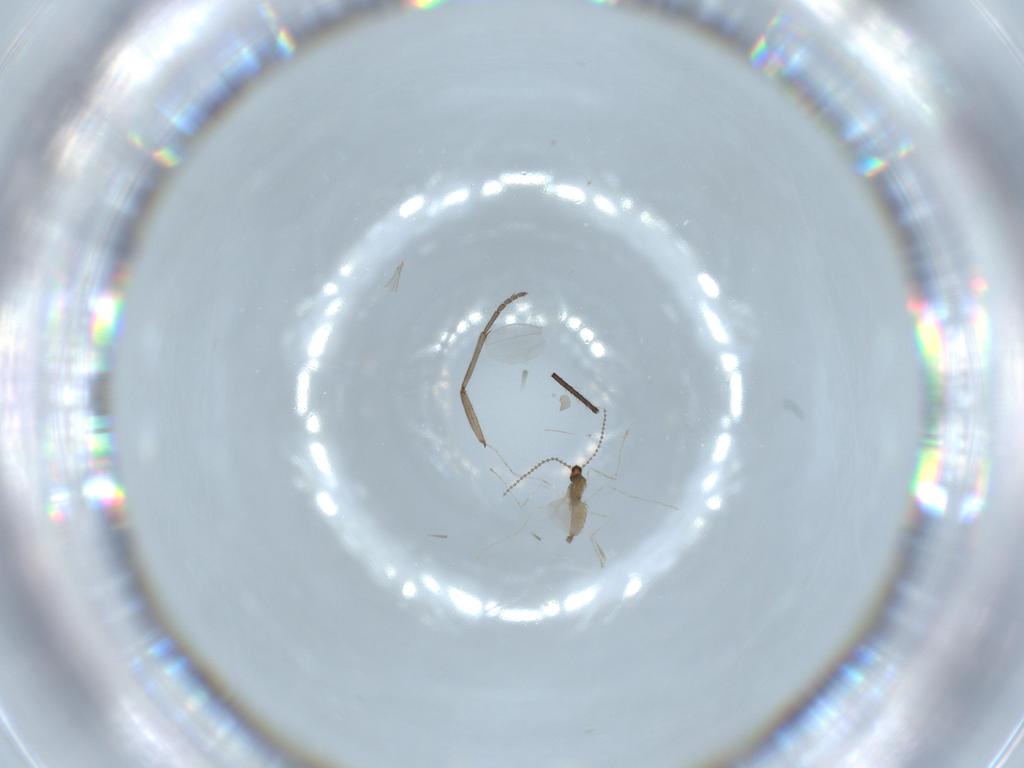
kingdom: Animalia
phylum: Arthropoda
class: Insecta
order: Diptera
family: Cecidomyiidae
